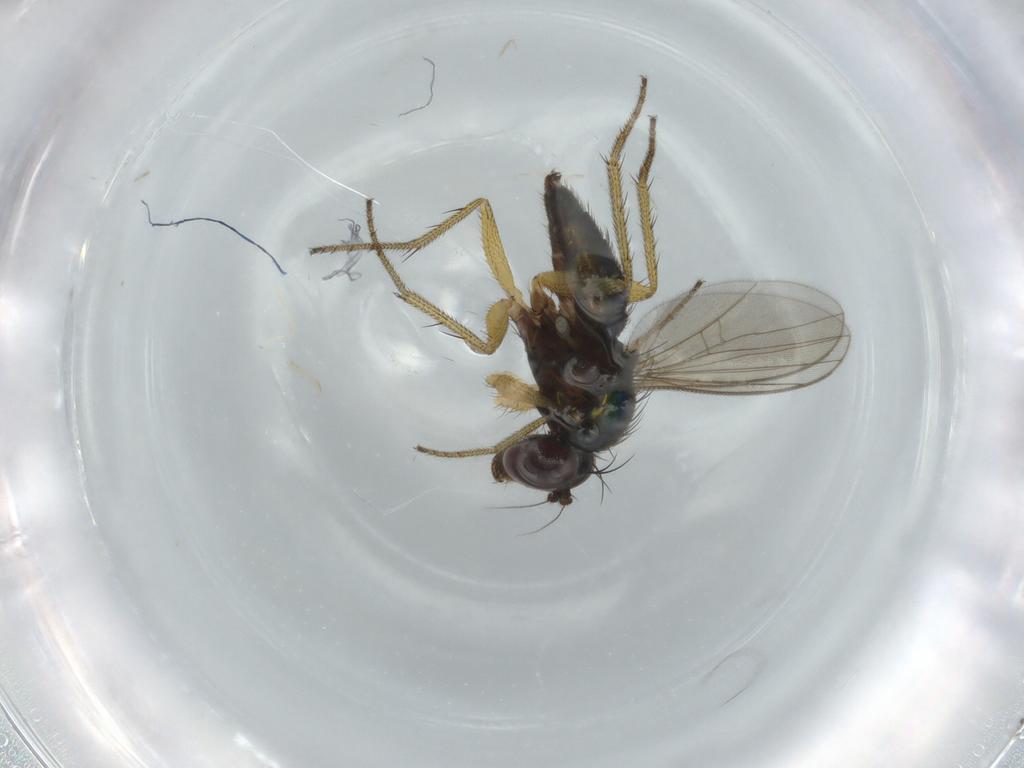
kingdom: Animalia
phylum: Arthropoda
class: Insecta
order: Diptera
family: Dolichopodidae
